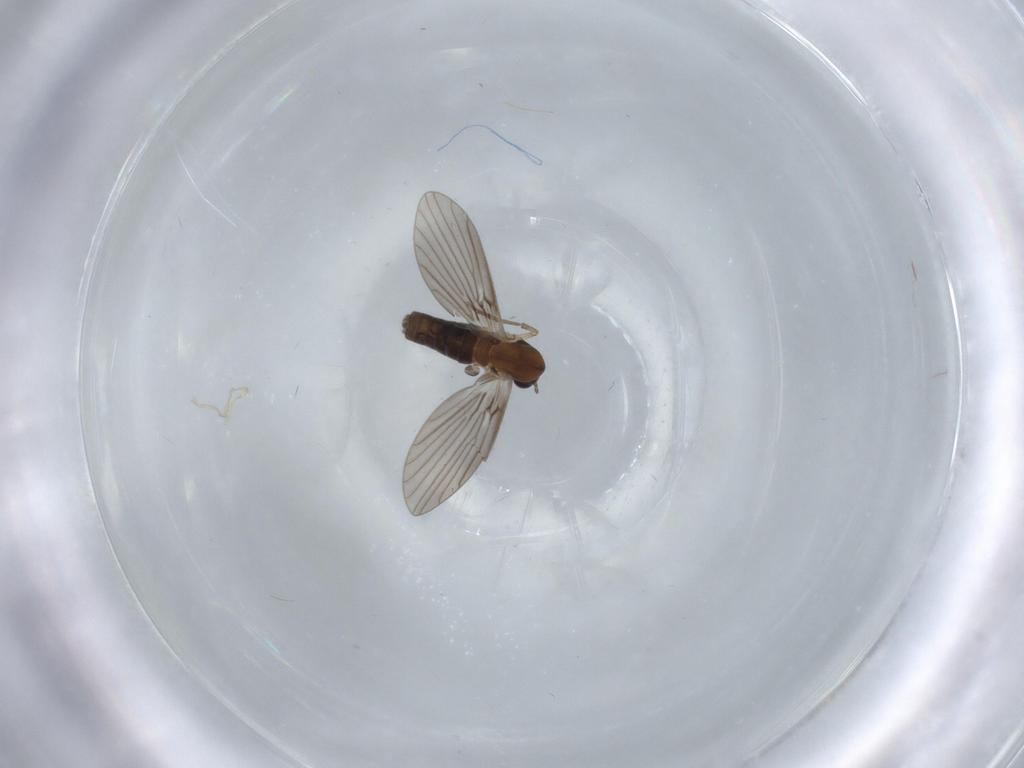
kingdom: Animalia
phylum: Arthropoda
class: Insecta
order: Diptera
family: Psychodidae
